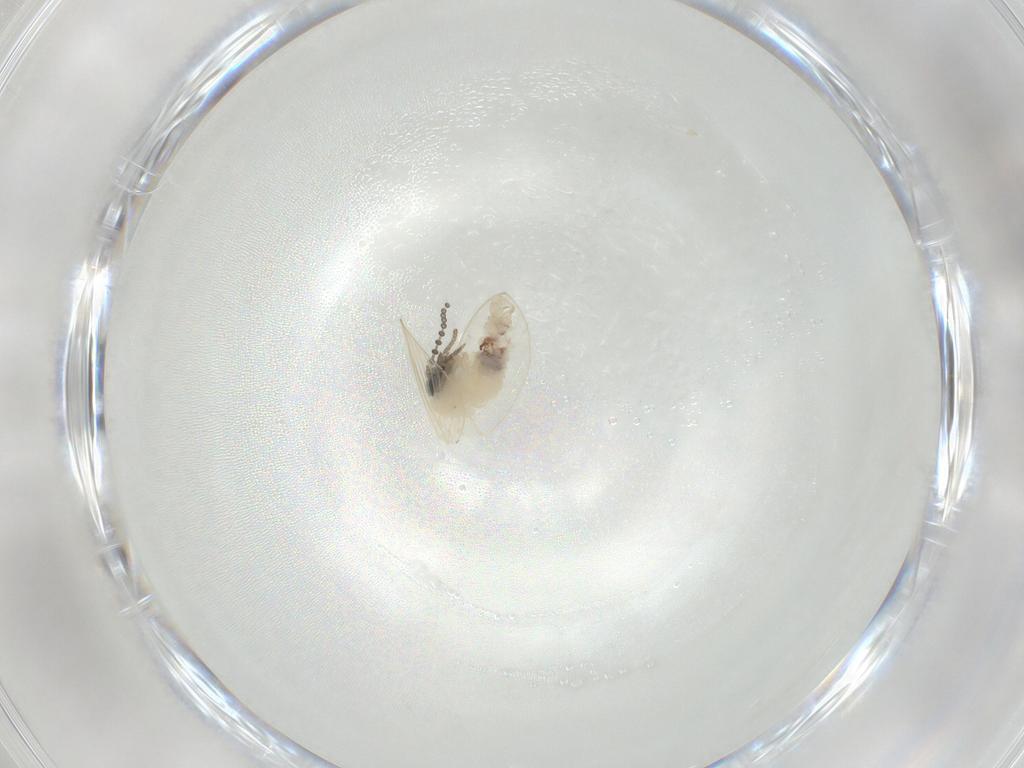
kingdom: Animalia
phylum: Arthropoda
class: Insecta
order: Diptera
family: Psychodidae
